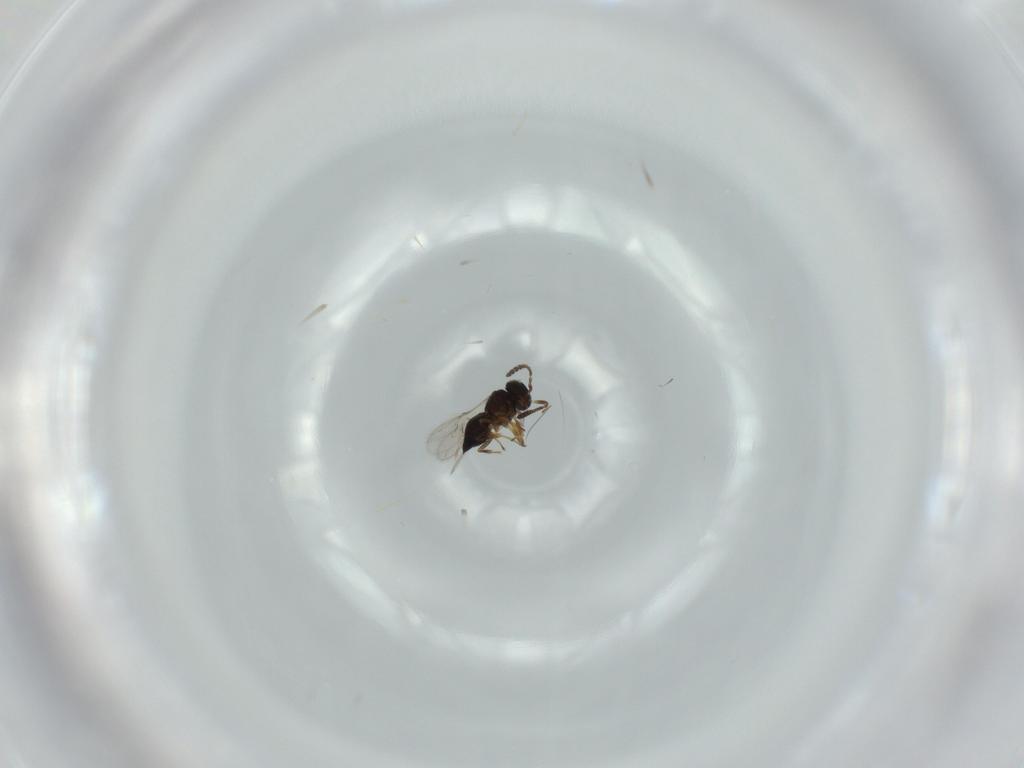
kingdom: Animalia
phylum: Arthropoda
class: Insecta
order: Hymenoptera
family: Scelionidae
